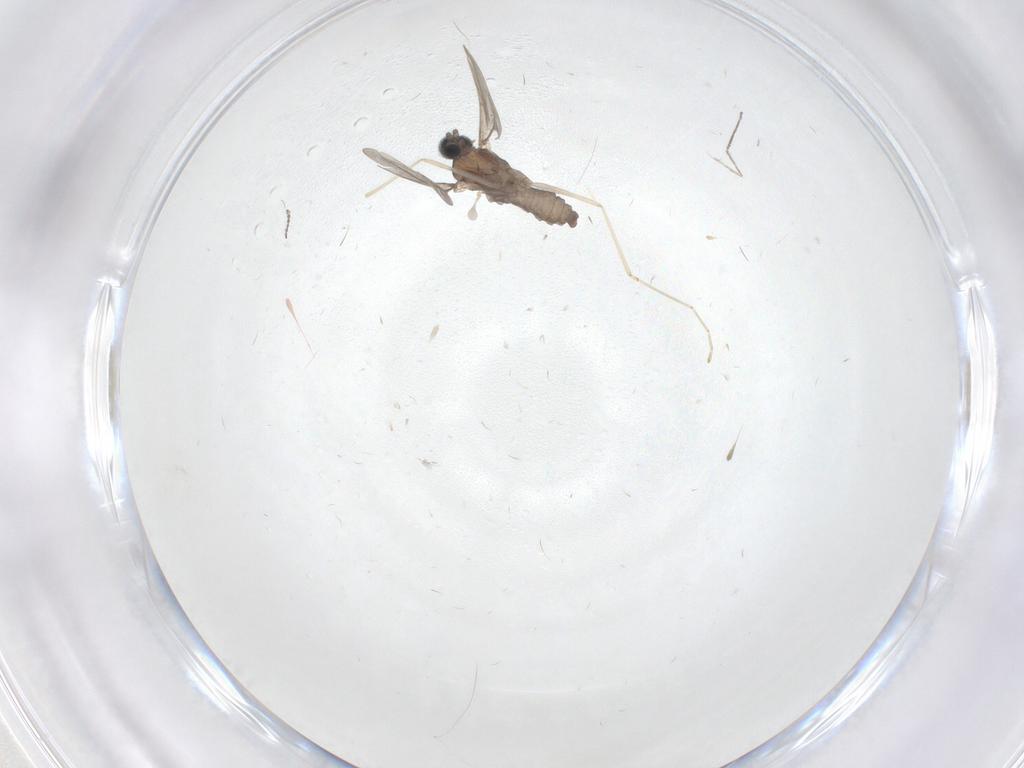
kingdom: Animalia
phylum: Arthropoda
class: Insecta
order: Diptera
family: Limoniidae
